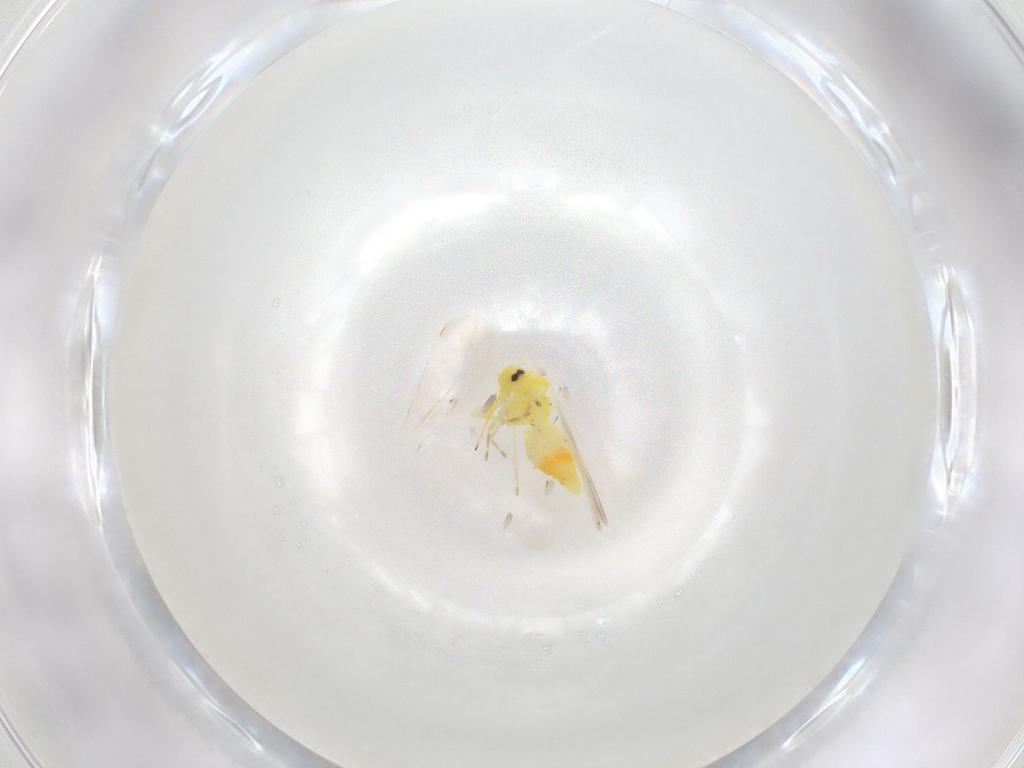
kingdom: Animalia
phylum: Arthropoda
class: Insecta
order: Hemiptera
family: Aleyrodidae
